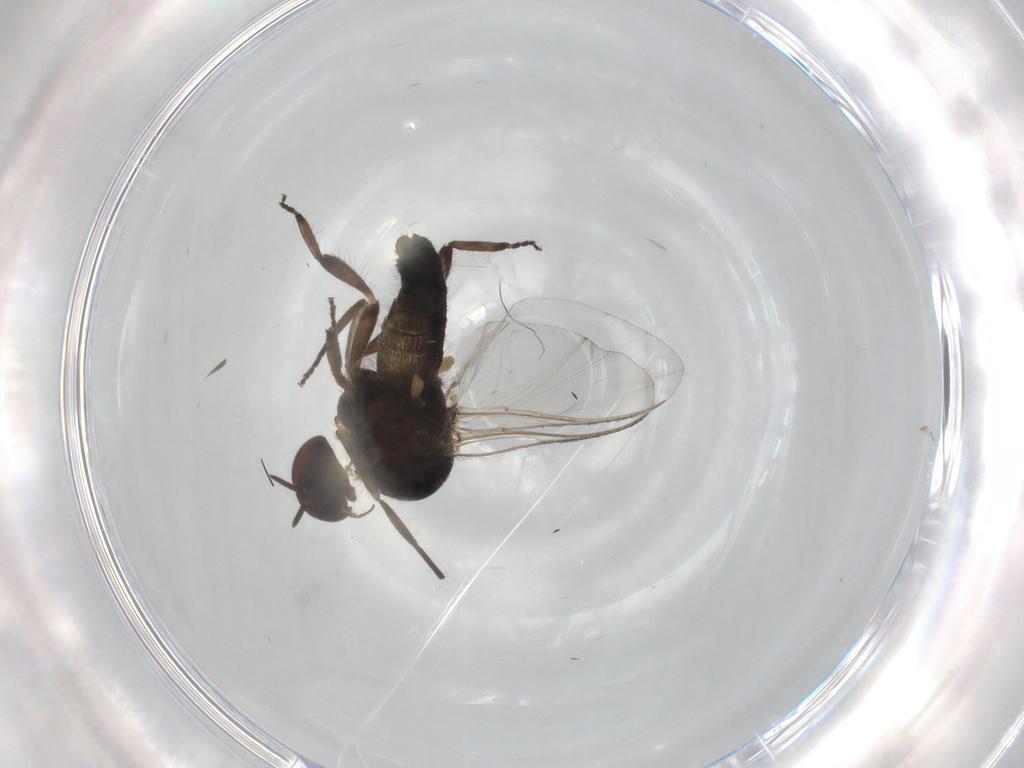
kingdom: Animalia
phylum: Arthropoda
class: Insecta
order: Diptera
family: Cecidomyiidae
